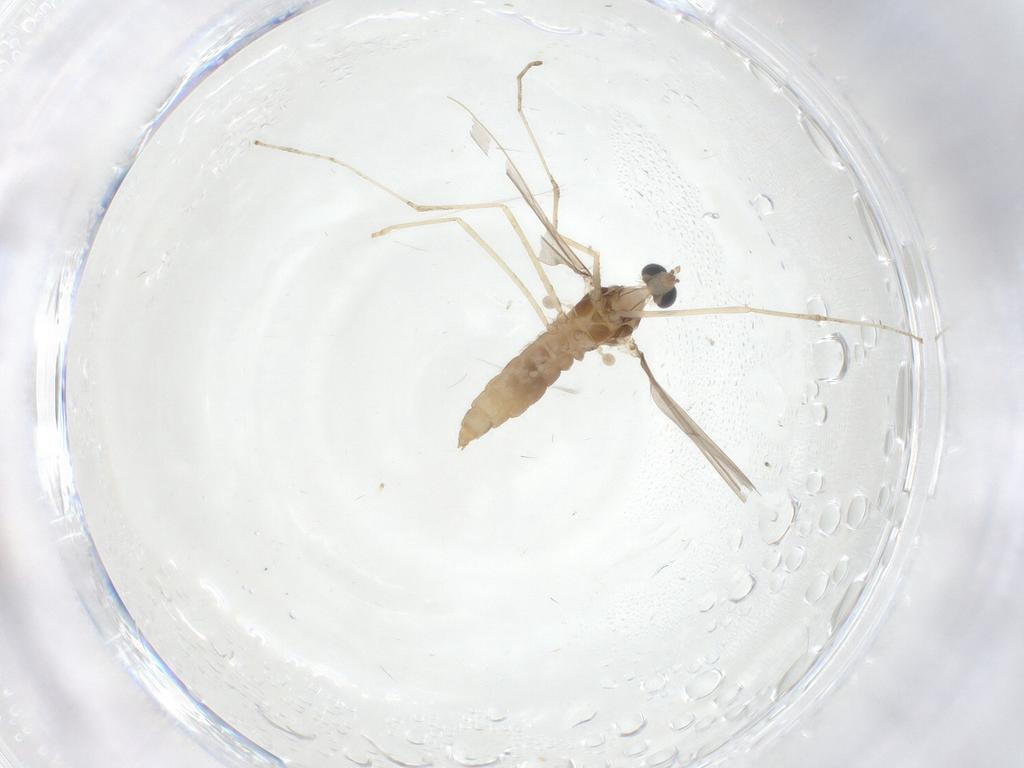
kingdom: Animalia
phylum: Arthropoda
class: Insecta
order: Diptera
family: Cecidomyiidae
